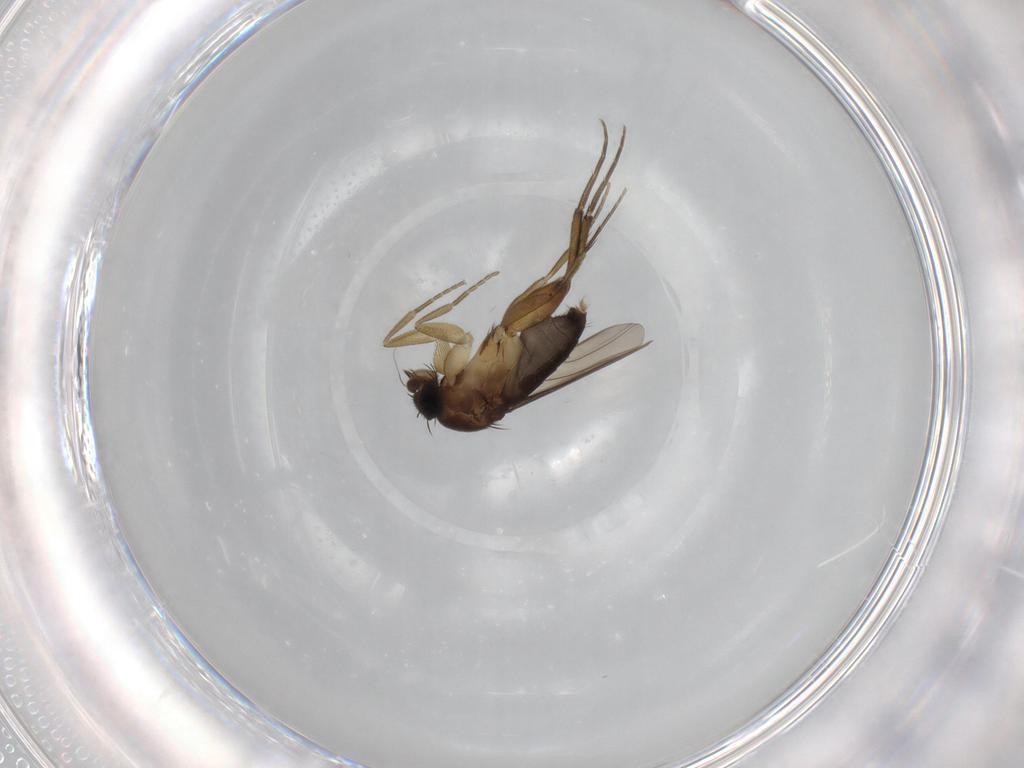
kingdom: Animalia
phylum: Arthropoda
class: Insecta
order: Diptera
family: Phoridae
